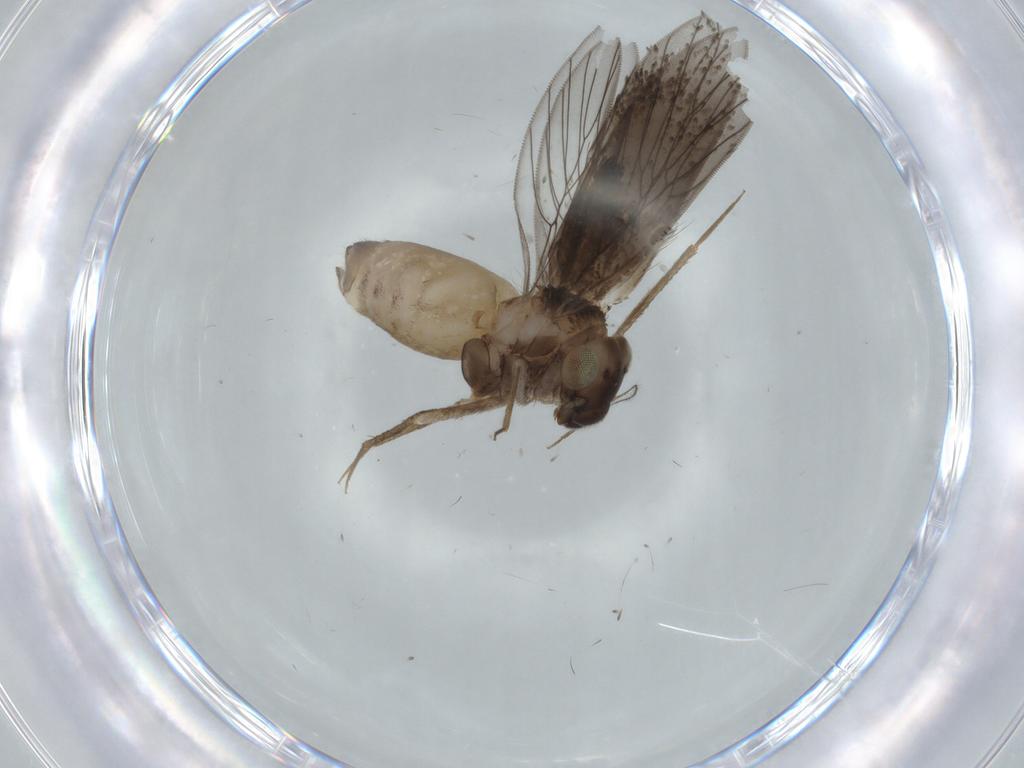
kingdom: Animalia
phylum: Arthropoda
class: Insecta
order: Psocodea
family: Lepidopsocidae
